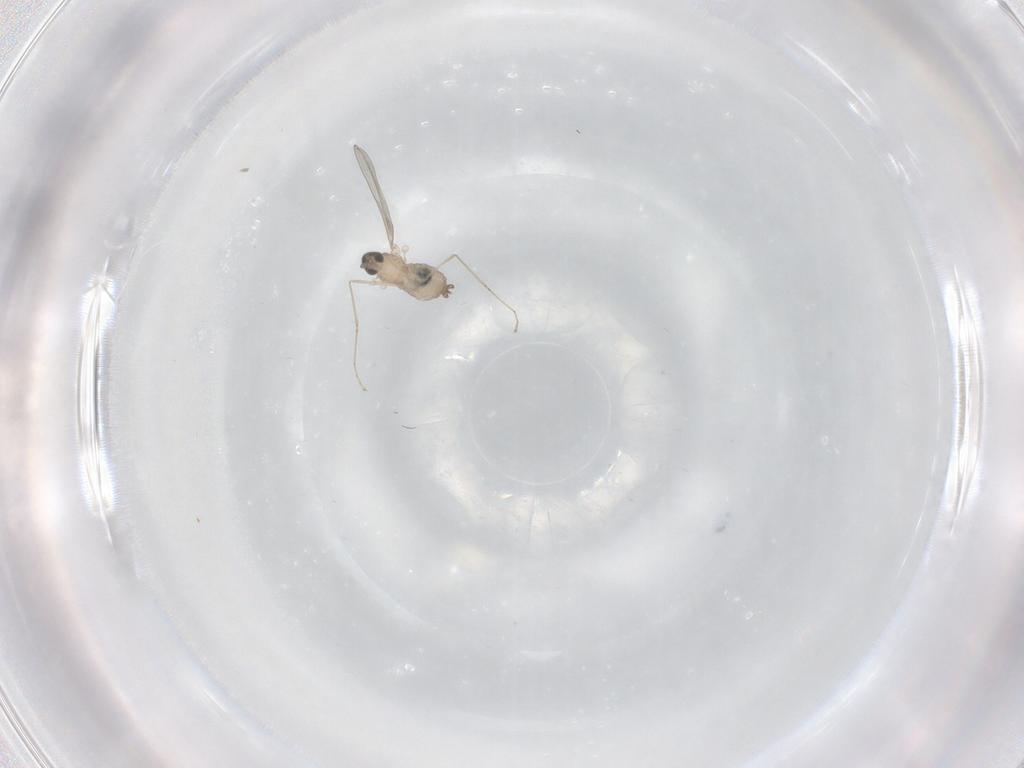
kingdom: Animalia
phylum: Arthropoda
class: Insecta
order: Diptera
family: Cecidomyiidae
